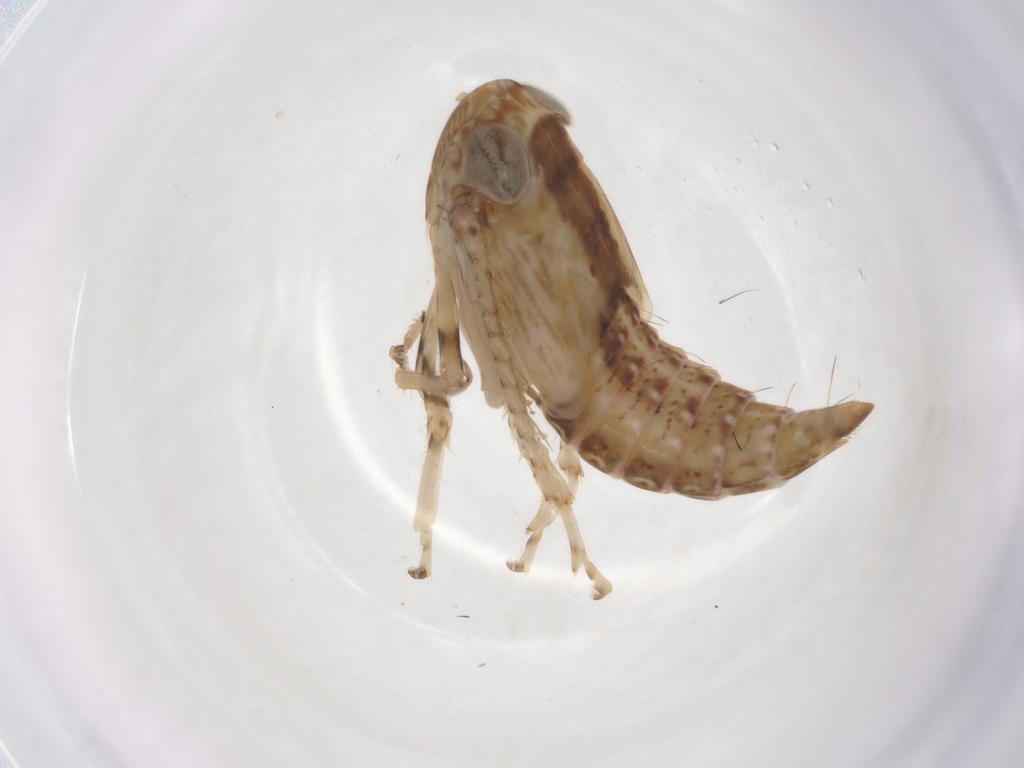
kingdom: Animalia
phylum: Arthropoda
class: Insecta
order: Hemiptera
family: Cicadellidae
